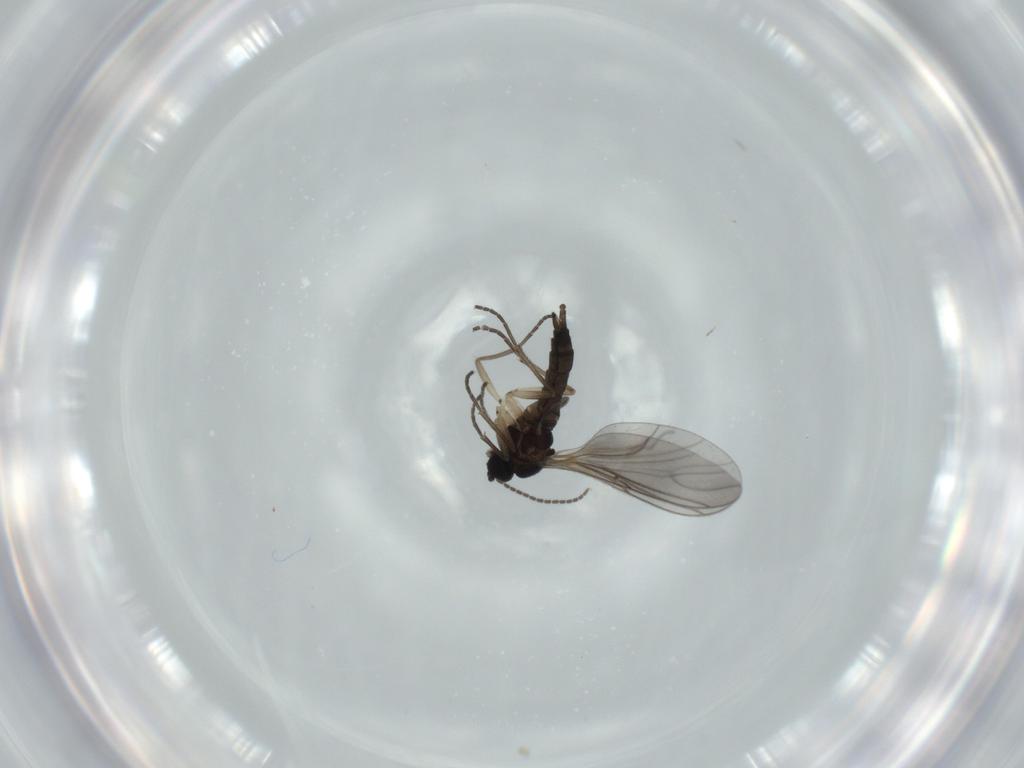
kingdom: Animalia
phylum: Arthropoda
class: Insecta
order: Diptera
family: Sciaridae
